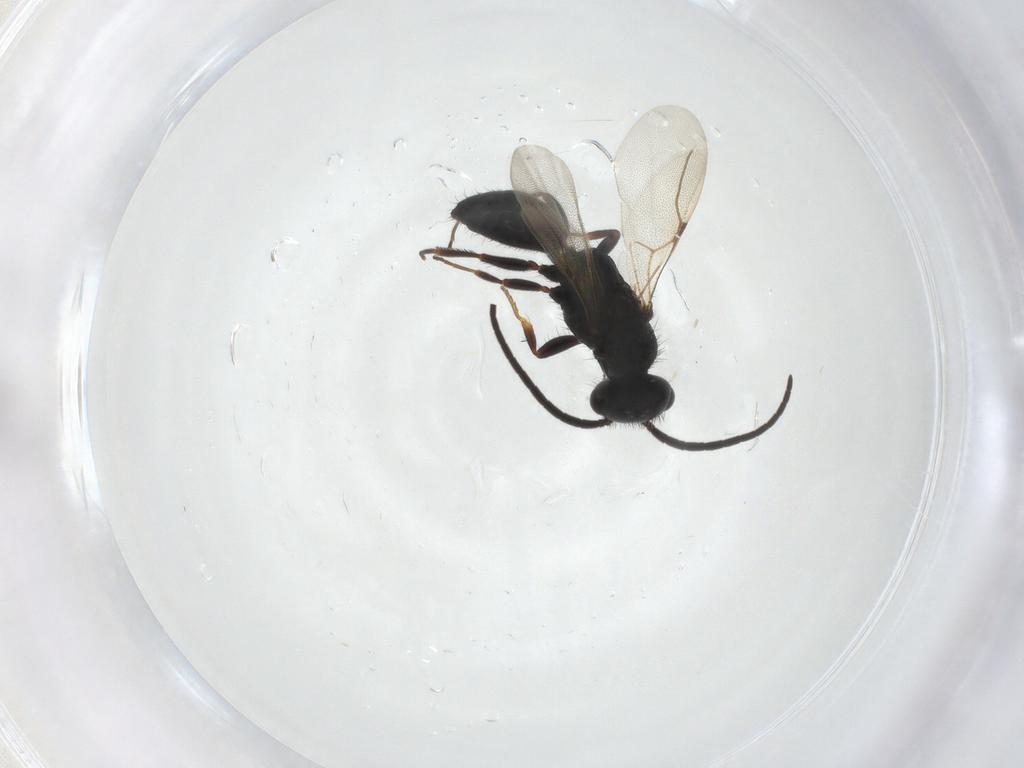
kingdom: Animalia
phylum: Arthropoda
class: Insecta
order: Hymenoptera
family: Bethylidae
